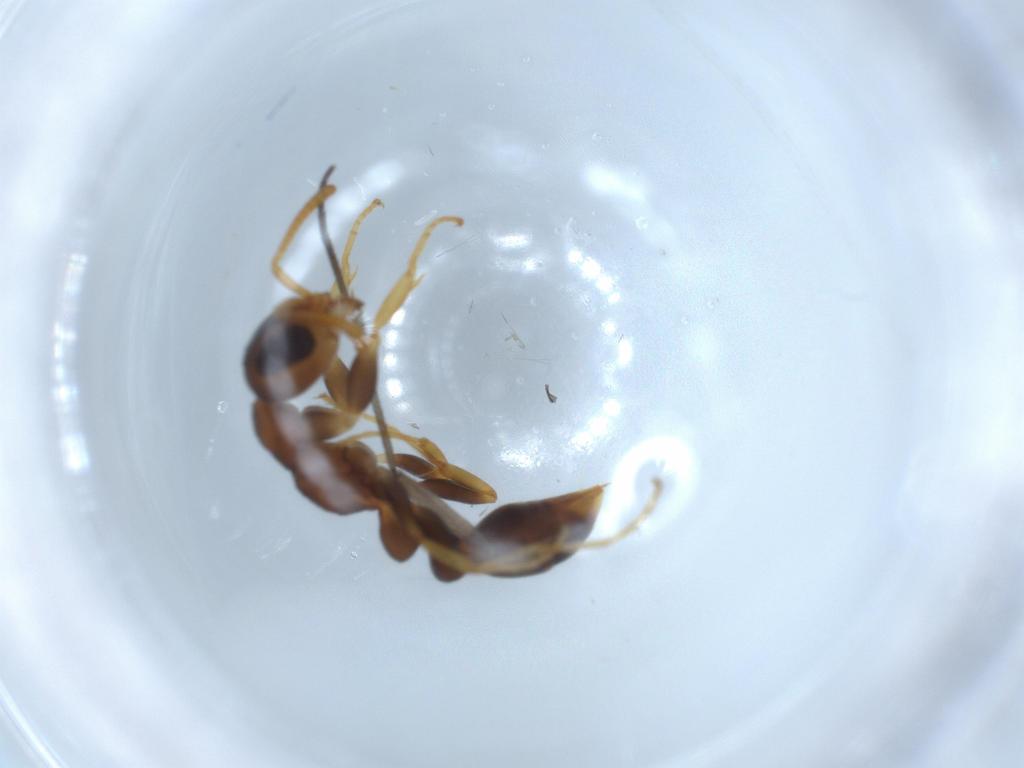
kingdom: Animalia
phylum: Arthropoda
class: Insecta
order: Hymenoptera
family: Formicidae
